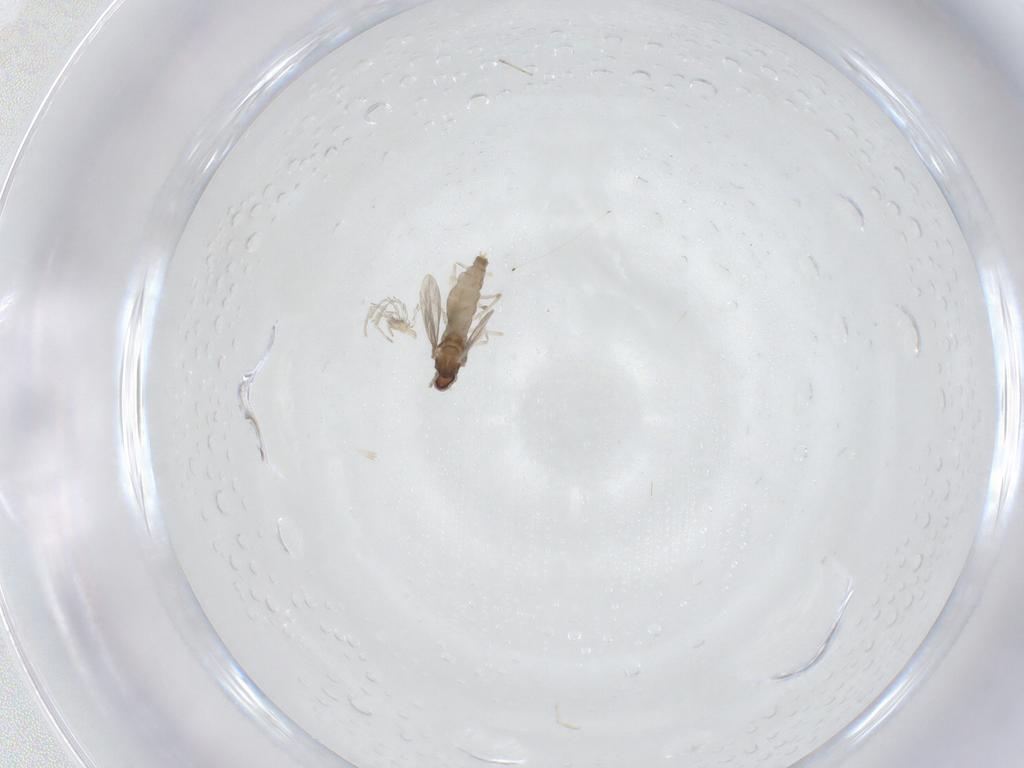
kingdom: Animalia
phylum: Arthropoda
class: Insecta
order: Diptera
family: Cecidomyiidae
